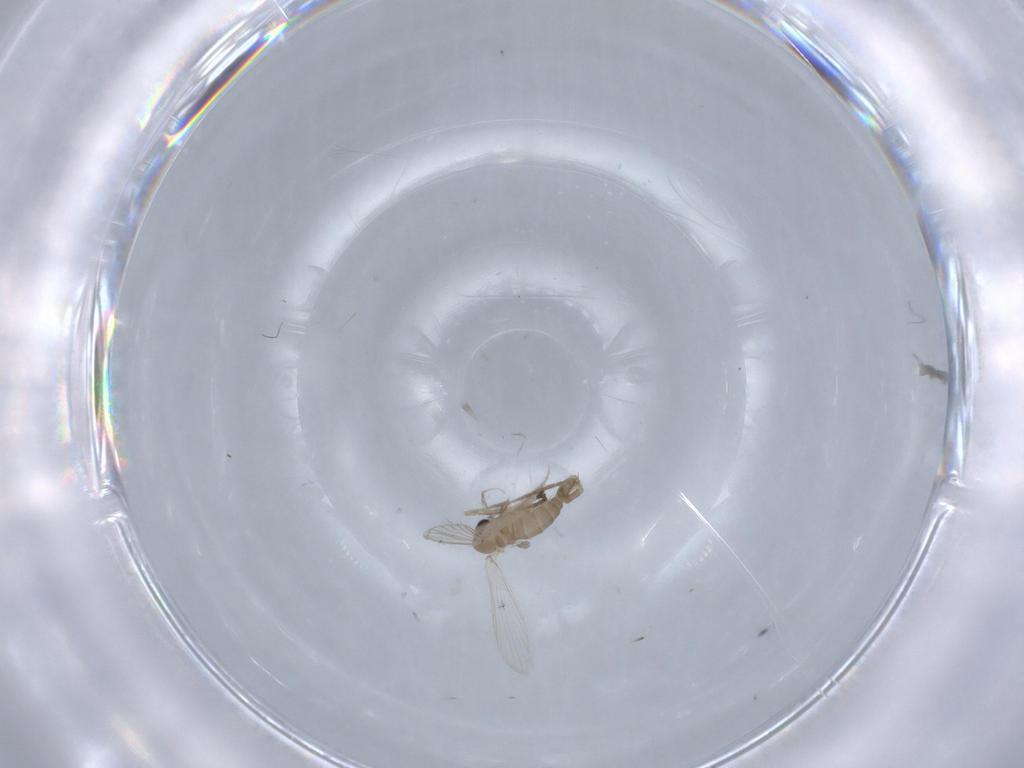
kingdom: Animalia
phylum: Arthropoda
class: Insecta
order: Diptera
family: Psychodidae
